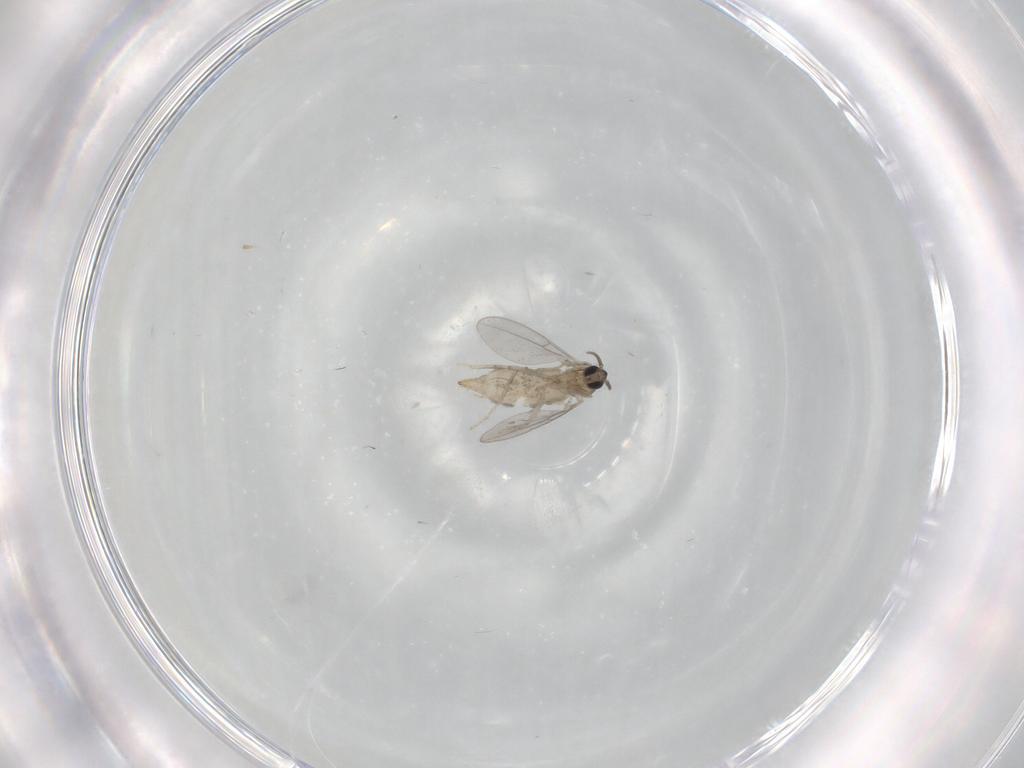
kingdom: Animalia
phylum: Arthropoda
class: Insecta
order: Diptera
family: Cecidomyiidae
